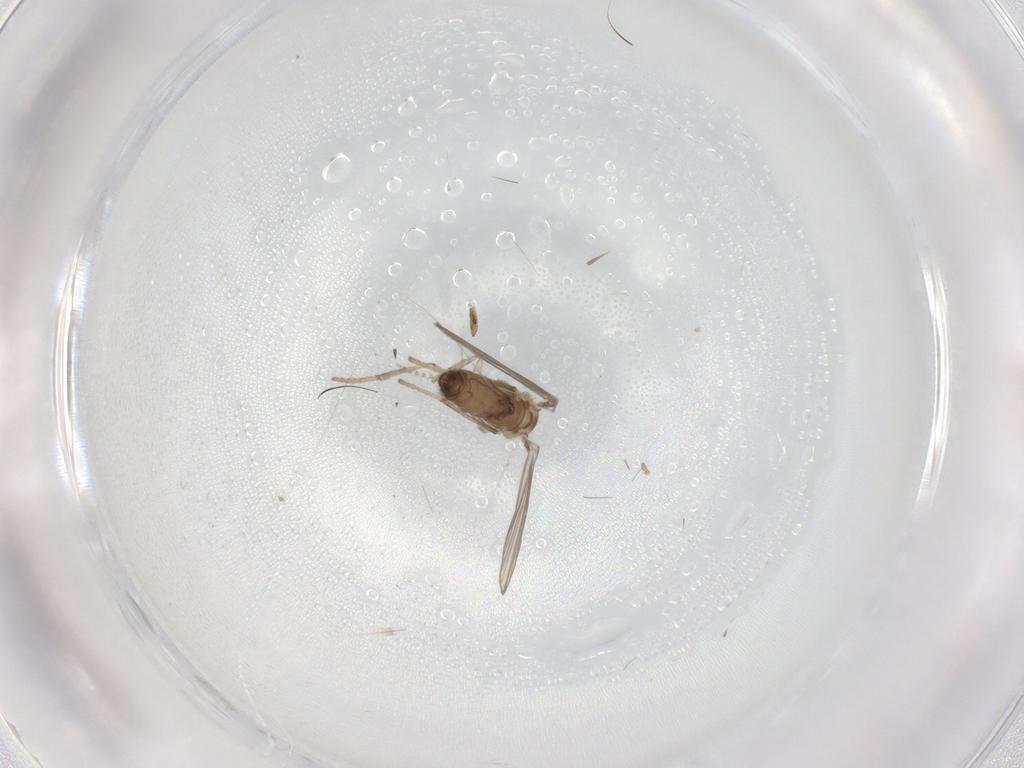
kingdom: Animalia
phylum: Arthropoda
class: Insecta
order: Diptera
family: Psychodidae
